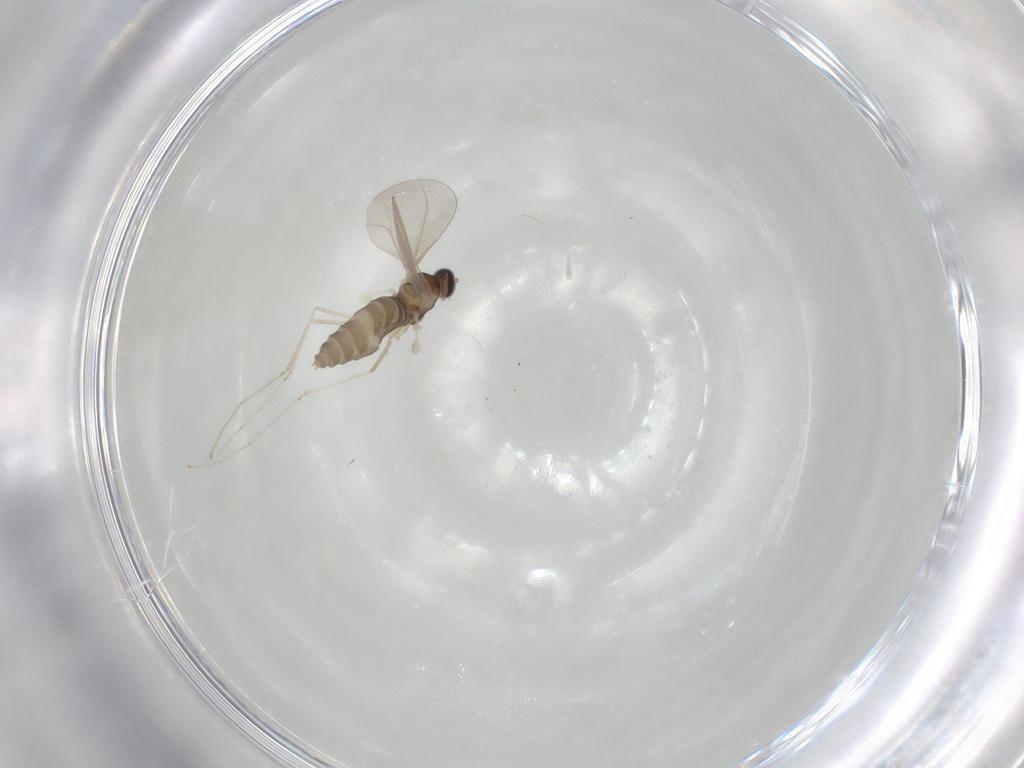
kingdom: Animalia
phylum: Arthropoda
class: Insecta
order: Diptera
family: Cecidomyiidae
